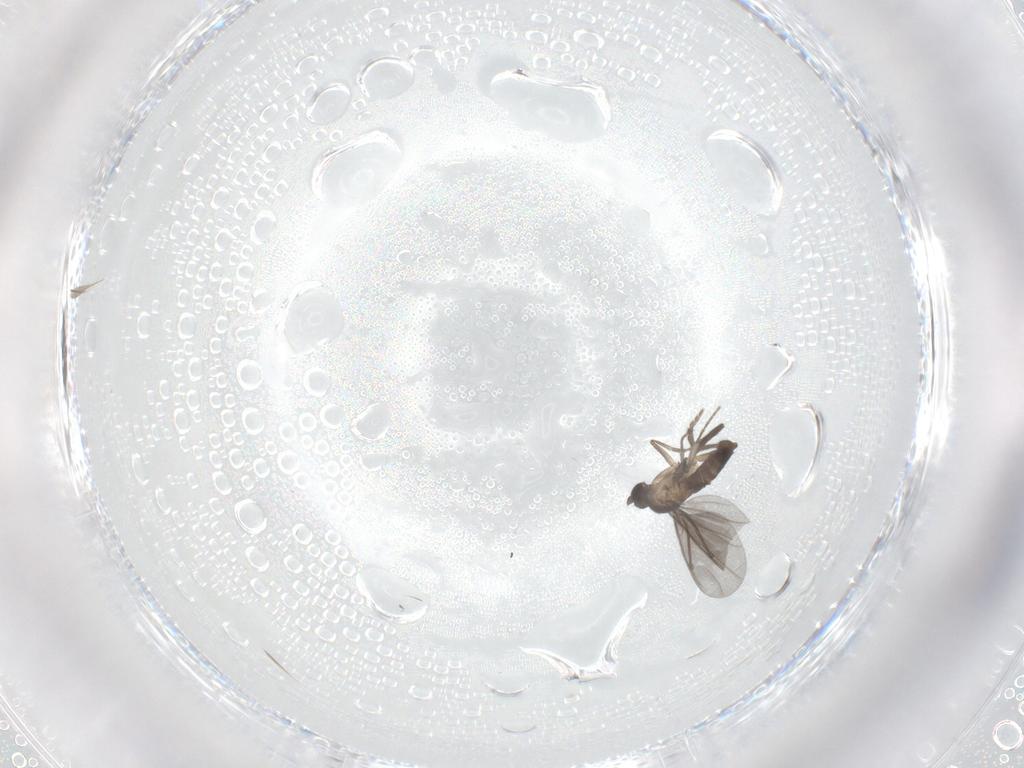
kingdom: Animalia
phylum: Arthropoda
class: Insecta
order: Diptera
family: Phoridae
